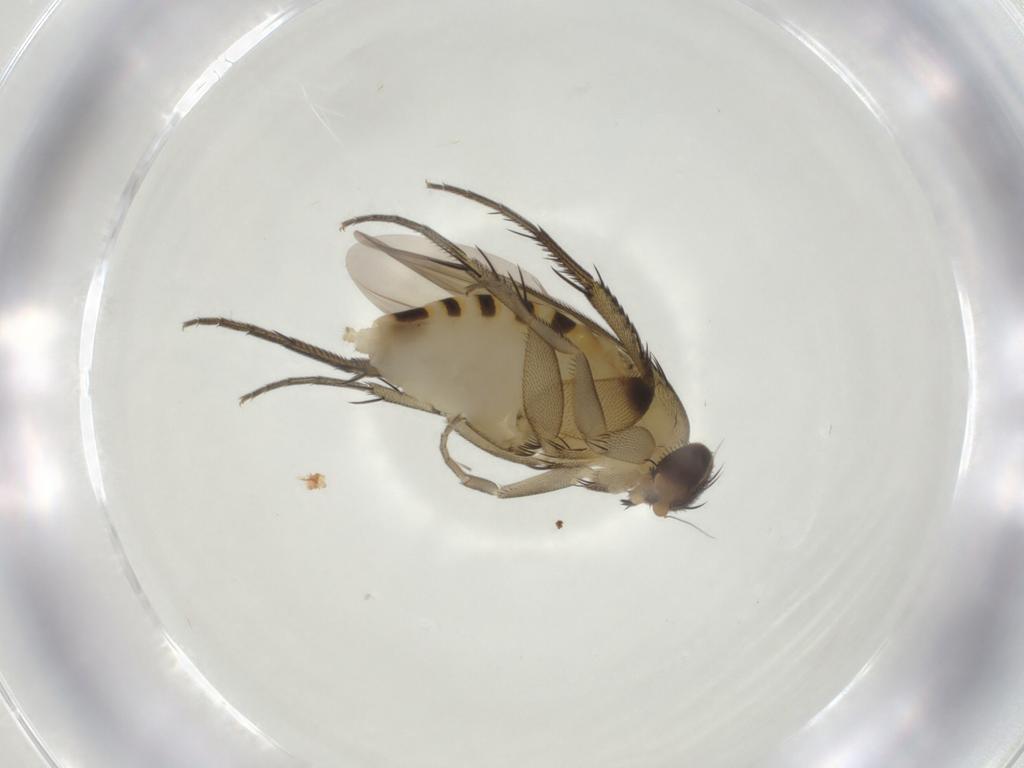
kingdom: Animalia
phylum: Arthropoda
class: Insecta
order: Diptera
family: Phoridae
